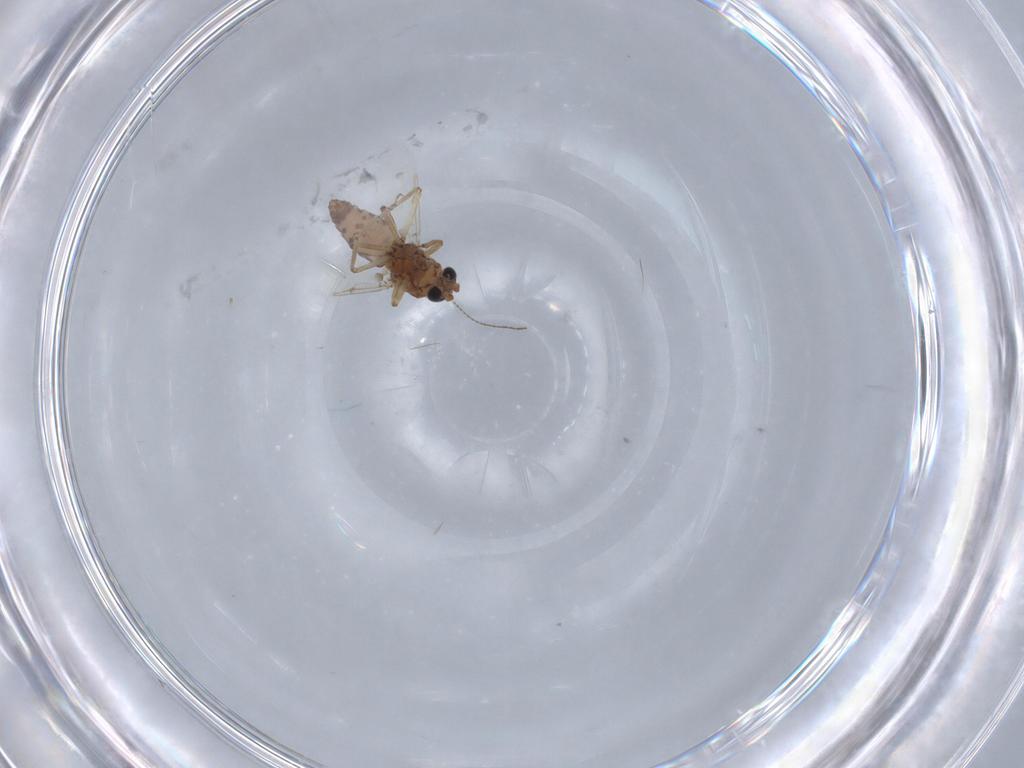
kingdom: Animalia
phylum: Arthropoda
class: Insecta
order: Diptera
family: Ceratopogonidae
